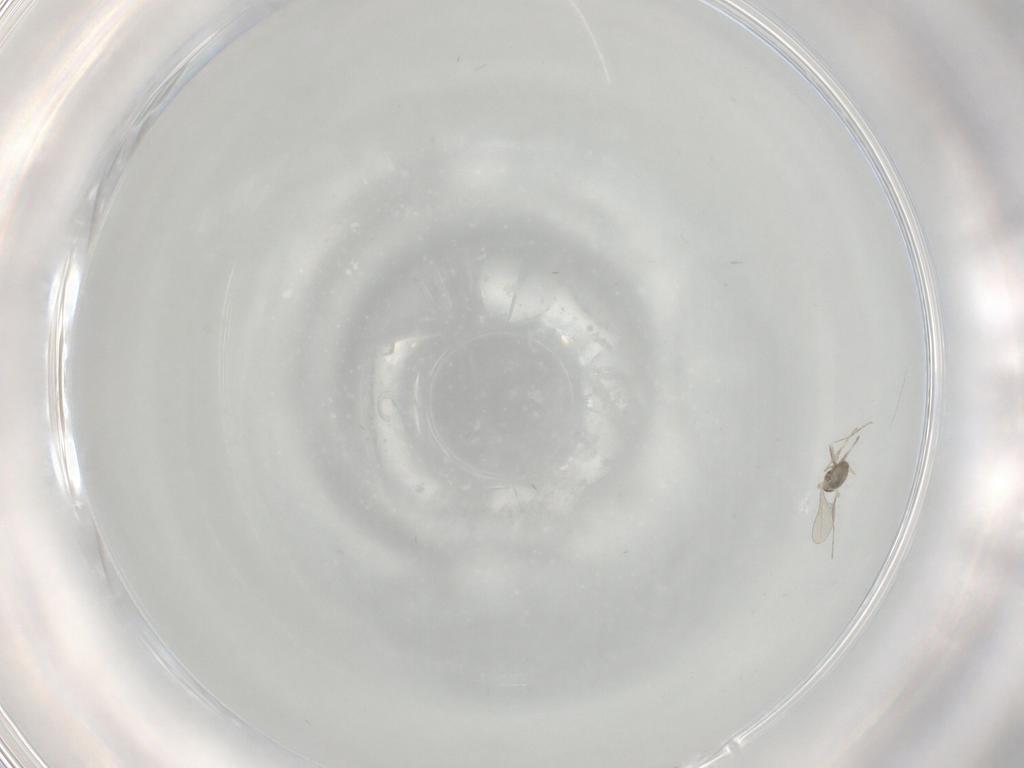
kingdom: Animalia
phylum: Arthropoda
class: Insecta
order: Diptera
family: Cecidomyiidae
